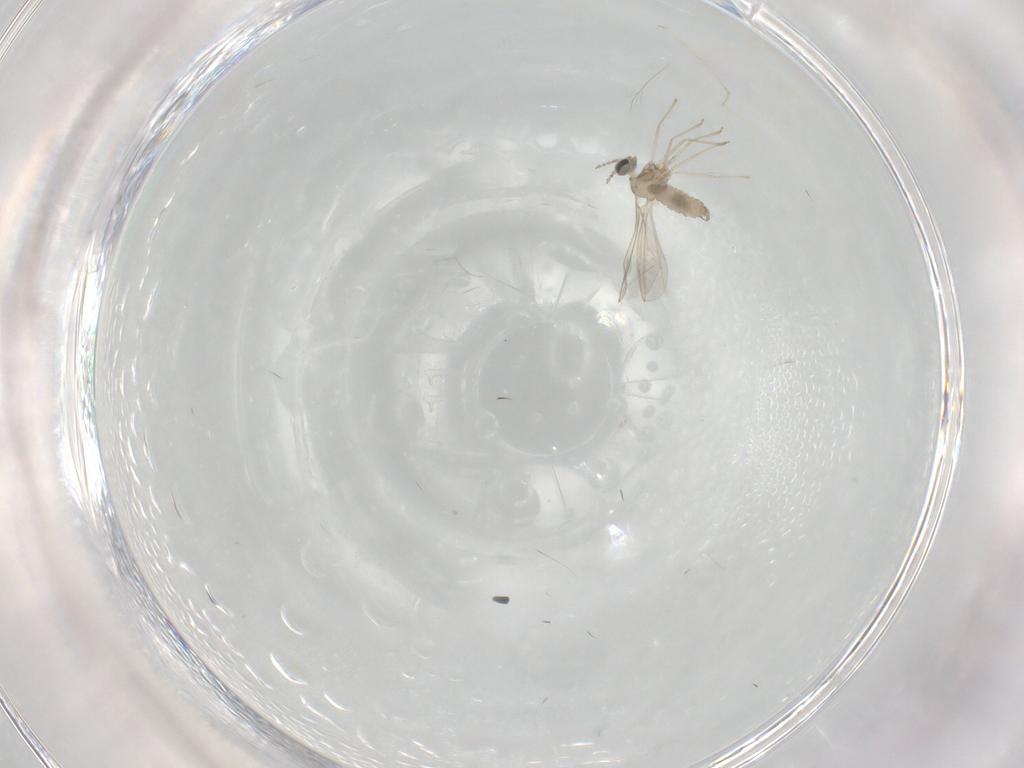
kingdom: Animalia
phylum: Arthropoda
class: Insecta
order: Diptera
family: Cecidomyiidae
